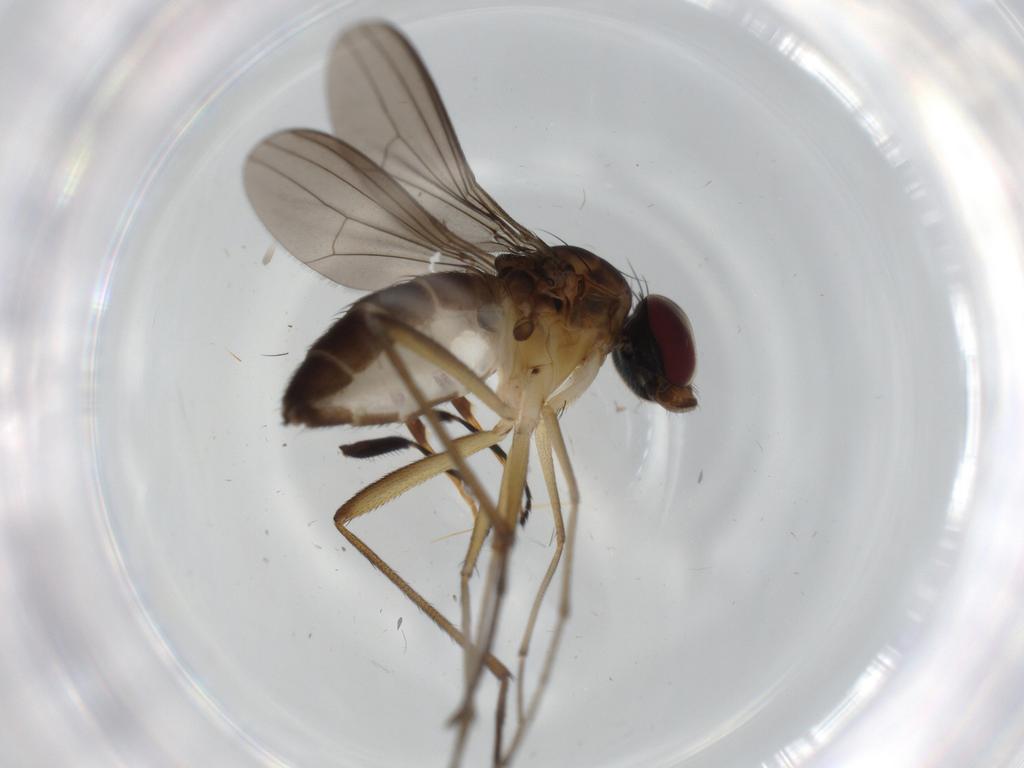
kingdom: Animalia
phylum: Arthropoda
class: Insecta
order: Diptera
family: Dolichopodidae
